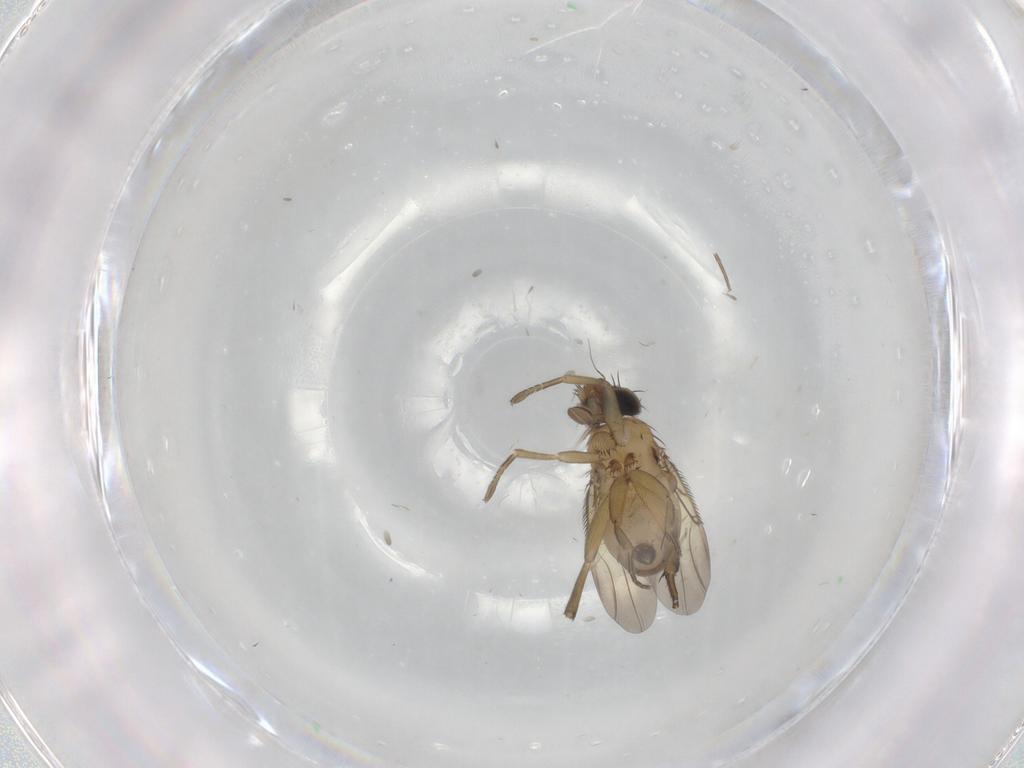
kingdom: Animalia
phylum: Arthropoda
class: Insecta
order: Diptera
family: Phoridae
